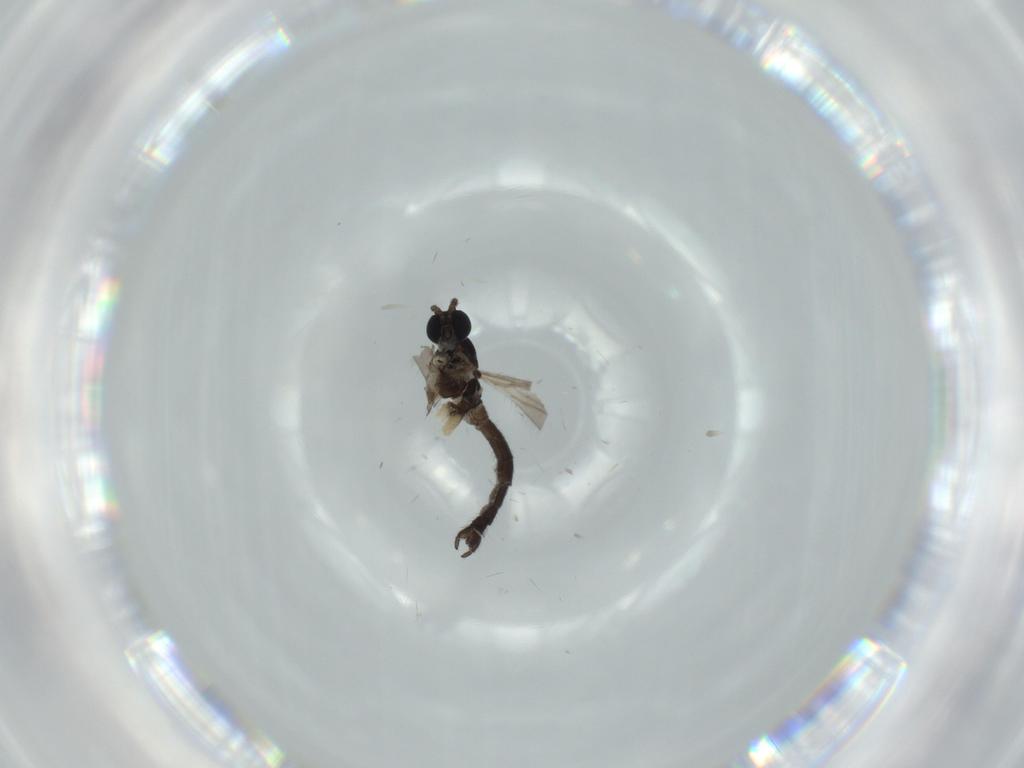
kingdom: Animalia
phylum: Arthropoda
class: Insecta
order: Diptera
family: Sciaridae
